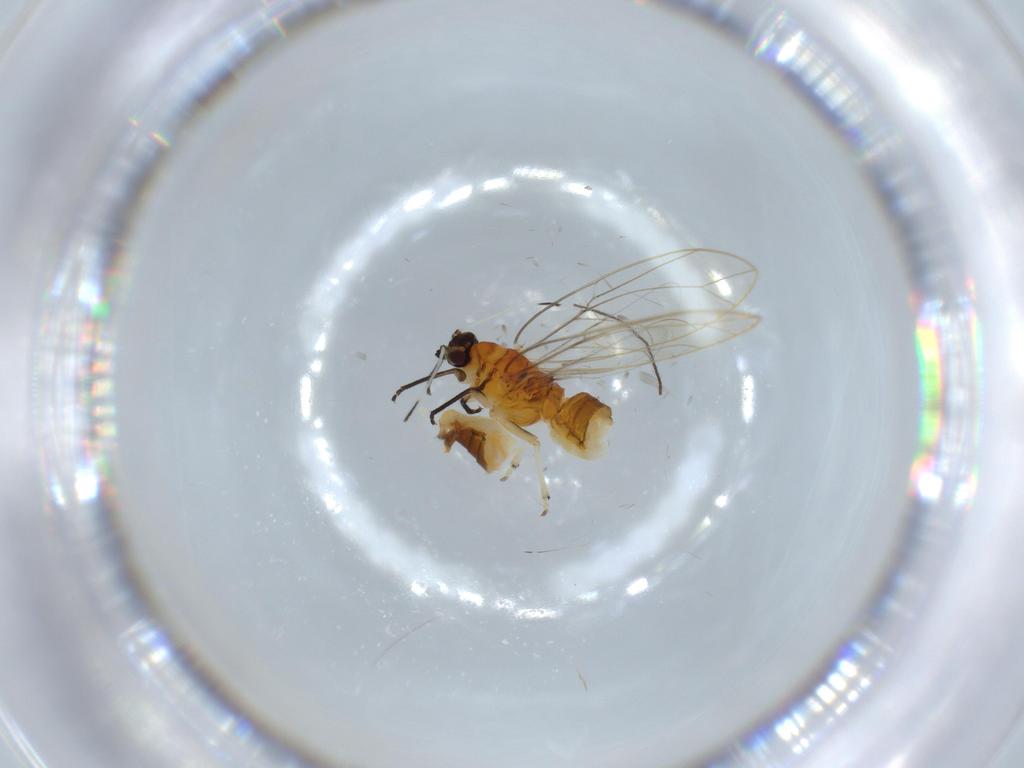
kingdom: Animalia
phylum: Arthropoda
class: Insecta
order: Hemiptera
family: Triozidae
